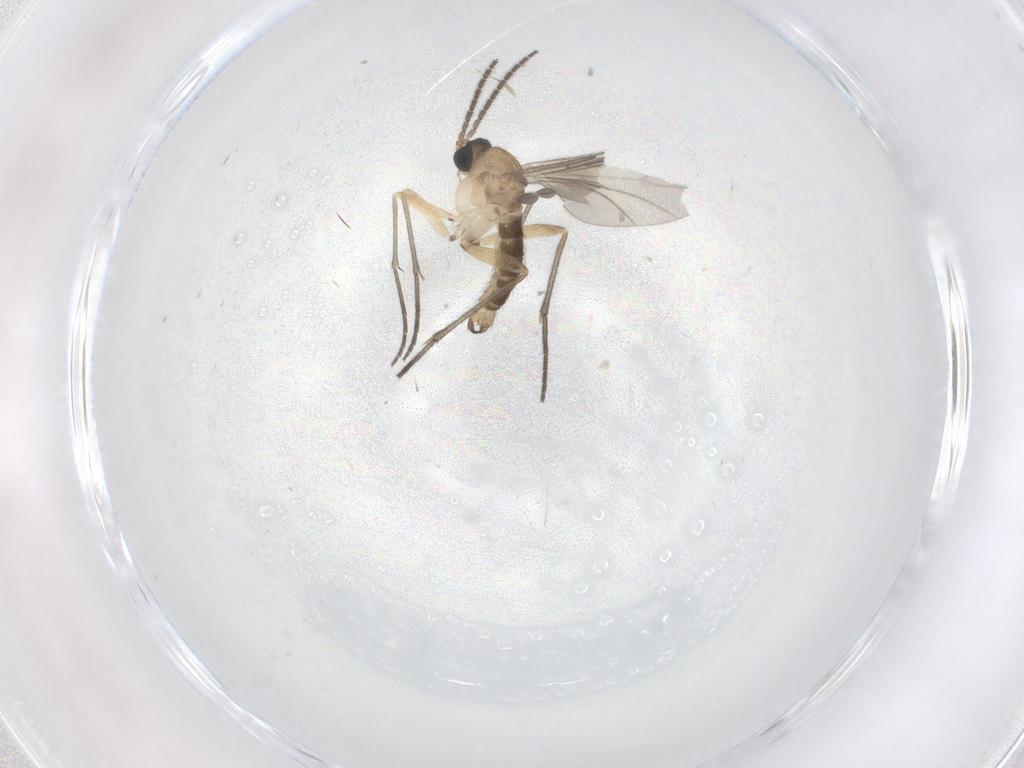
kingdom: Animalia
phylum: Arthropoda
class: Insecta
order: Diptera
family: Sciaridae
